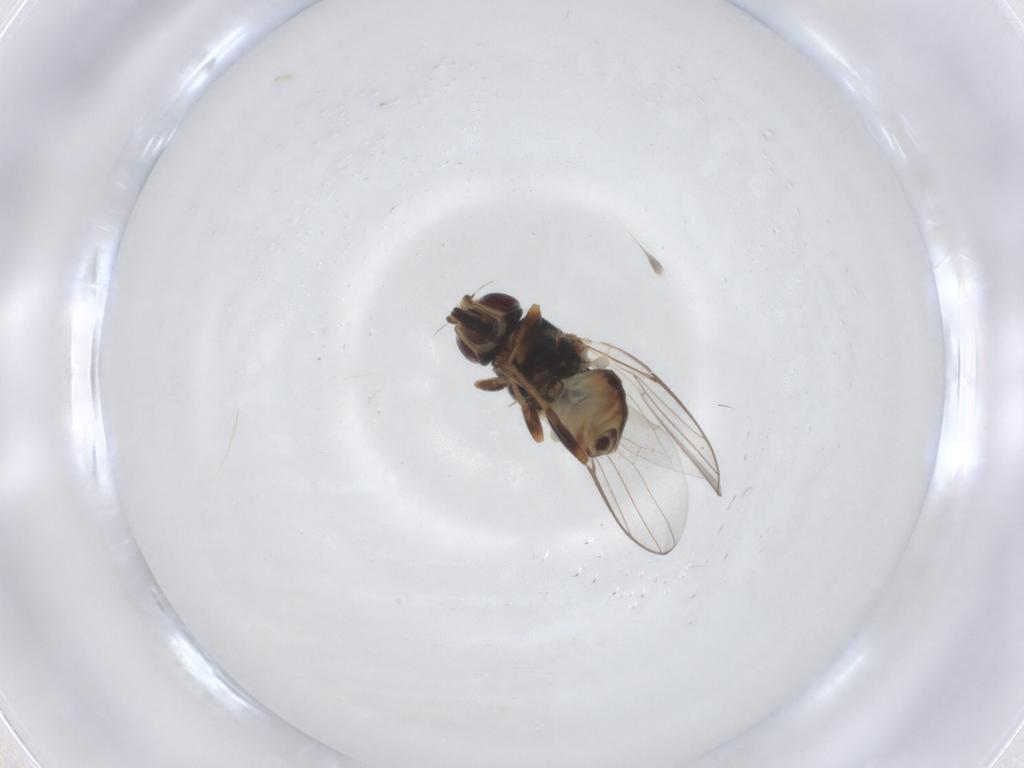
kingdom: Animalia
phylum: Arthropoda
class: Insecta
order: Diptera
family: Chloropidae
